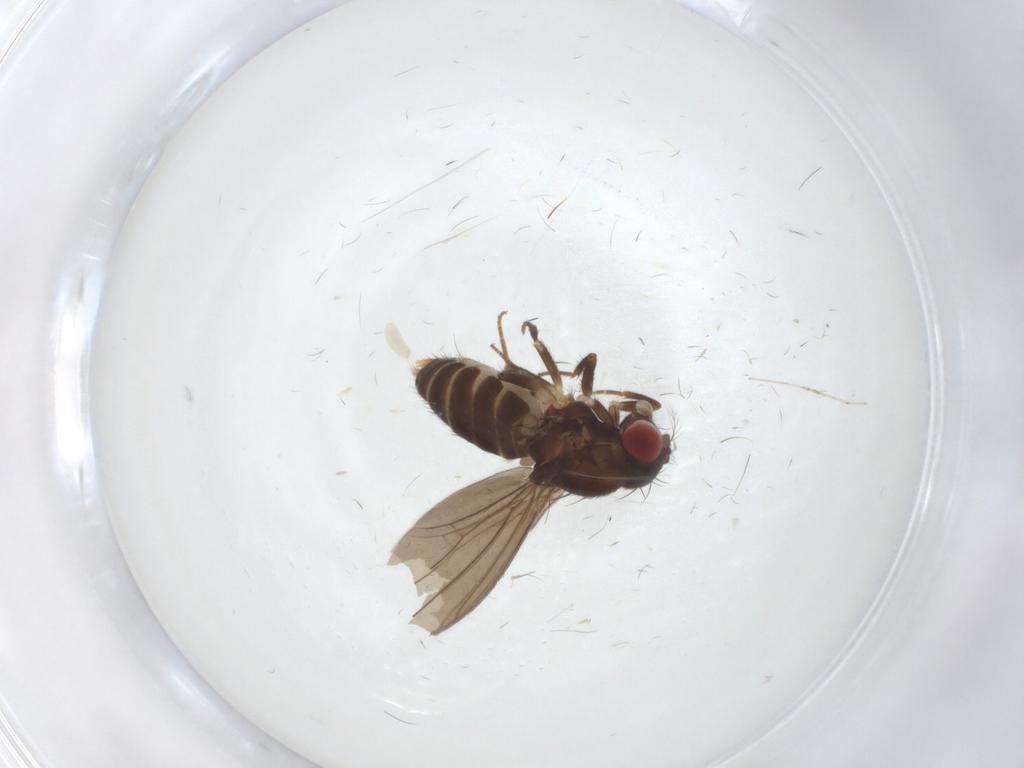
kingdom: Animalia
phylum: Arthropoda
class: Insecta
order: Diptera
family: Drosophilidae
